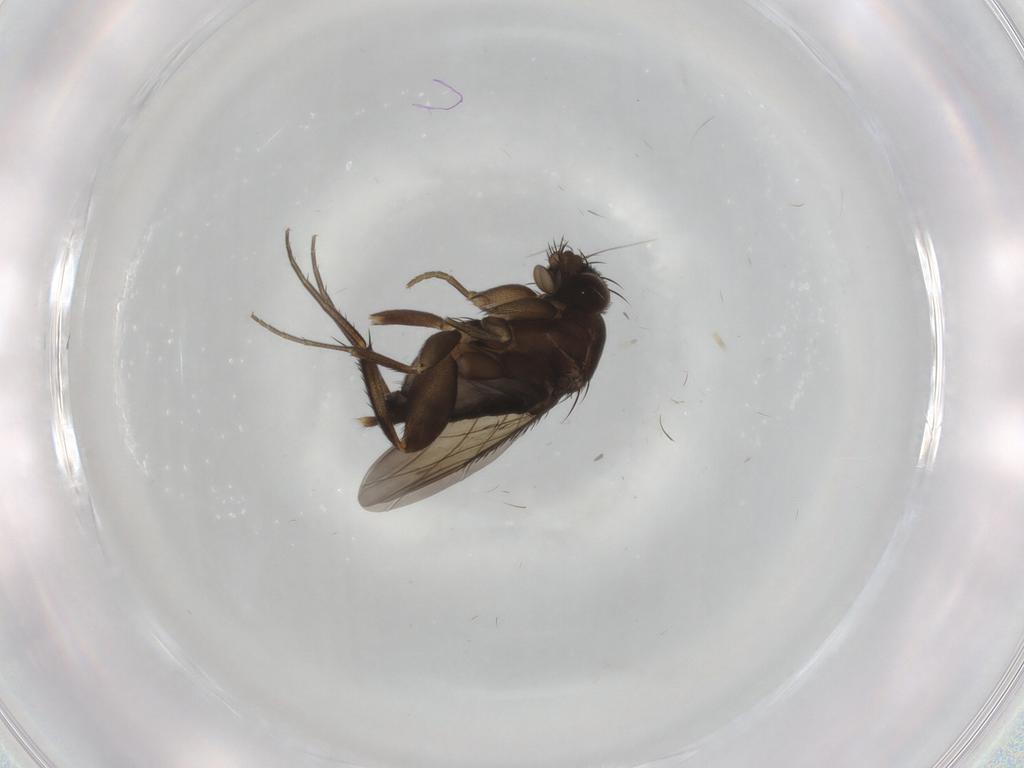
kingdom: Animalia
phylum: Arthropoda
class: Insecta
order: Diptera
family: Phoridae
